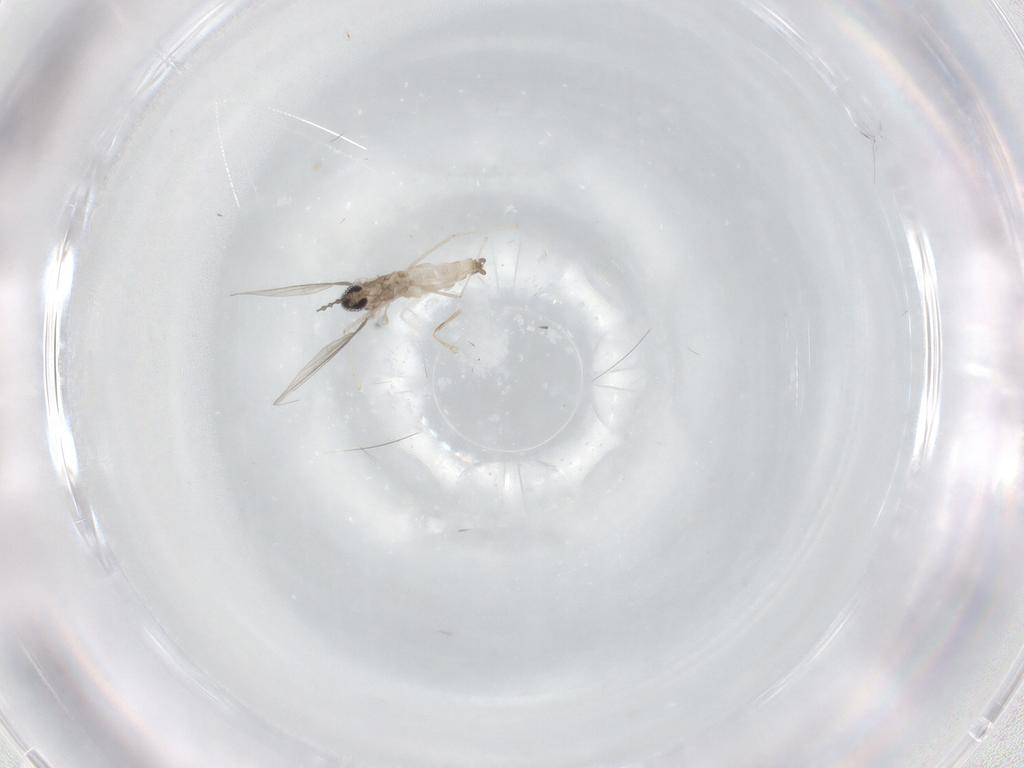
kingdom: Animalia
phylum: Arthropoda
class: Insecta
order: Diptera
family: Cecidomyiidae
